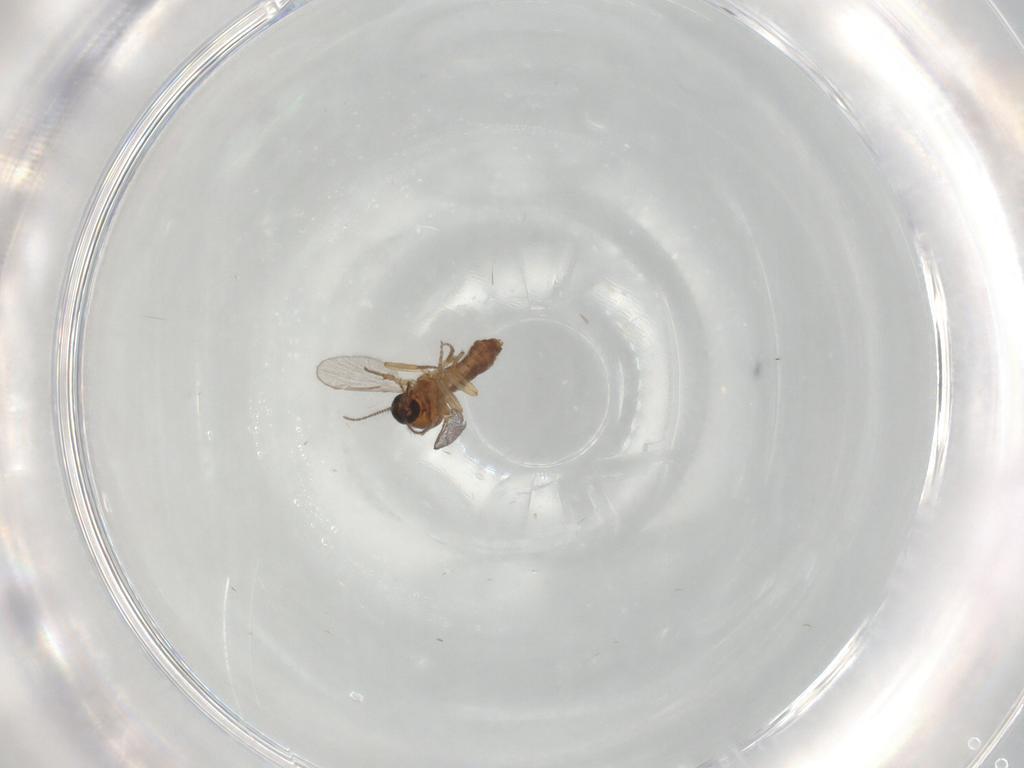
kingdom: Animalia
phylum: Arthropoda
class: Insecta
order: Diptera
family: Ceratopogonidae
